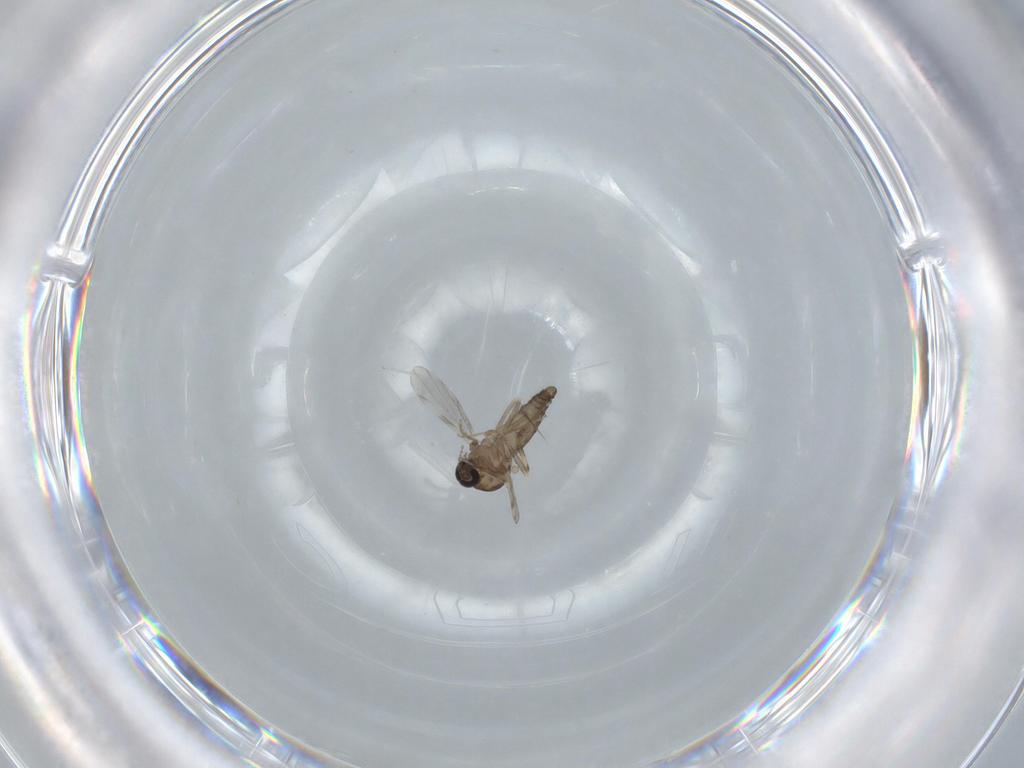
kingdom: Animalia
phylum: Arthropoda
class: Insecta
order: Diptera
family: Ceratopogonidae
